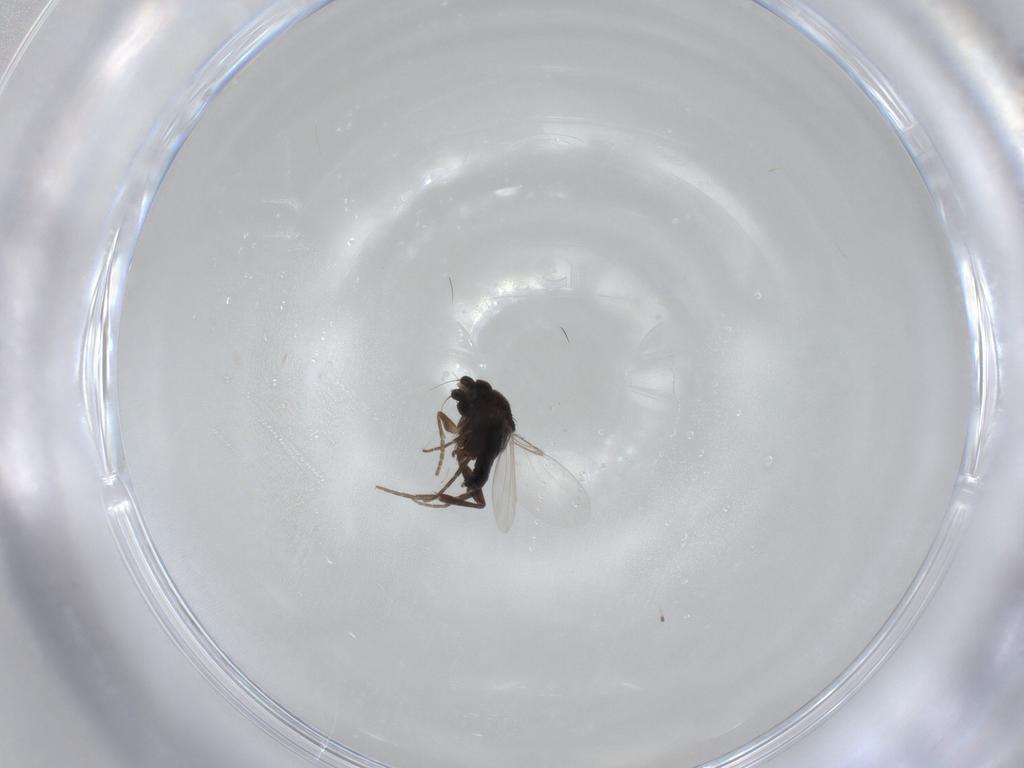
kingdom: Animalia
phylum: Arthropoda
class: Insecta
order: Diptera
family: Phoridae
